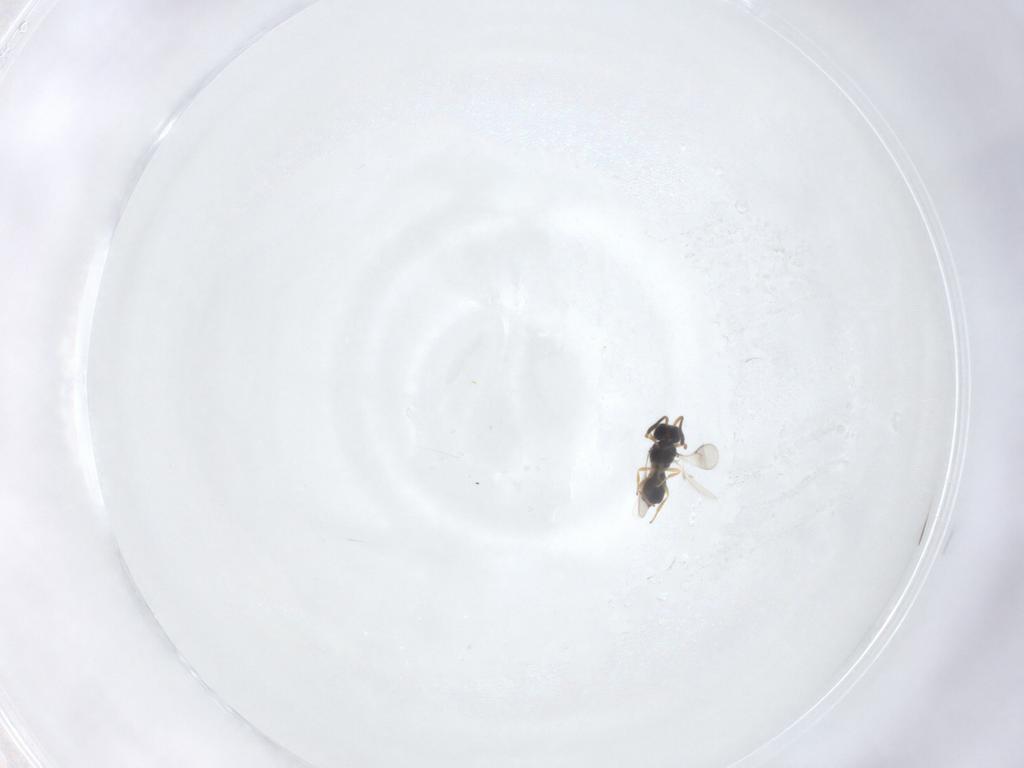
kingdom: Animalia
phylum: Arthropoda
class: Insecta
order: Hymenoptera
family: Scelionidae
